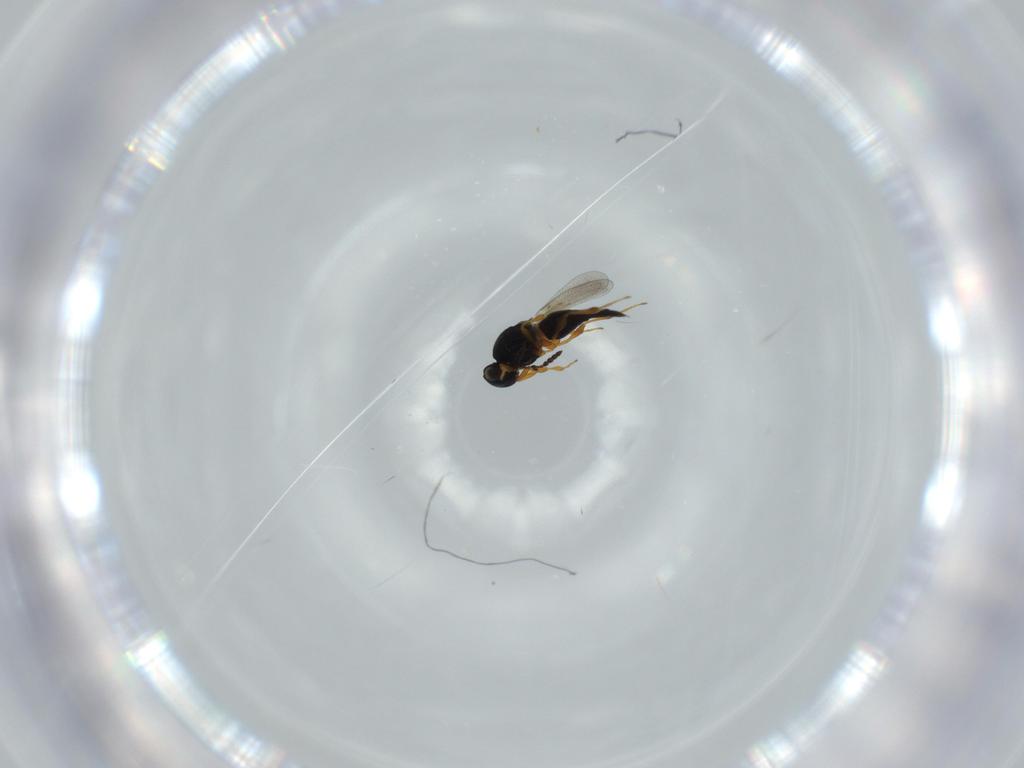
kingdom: Animalia
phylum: Arthropoda
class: Insecta
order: Hymenoptera
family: Platygastridae
